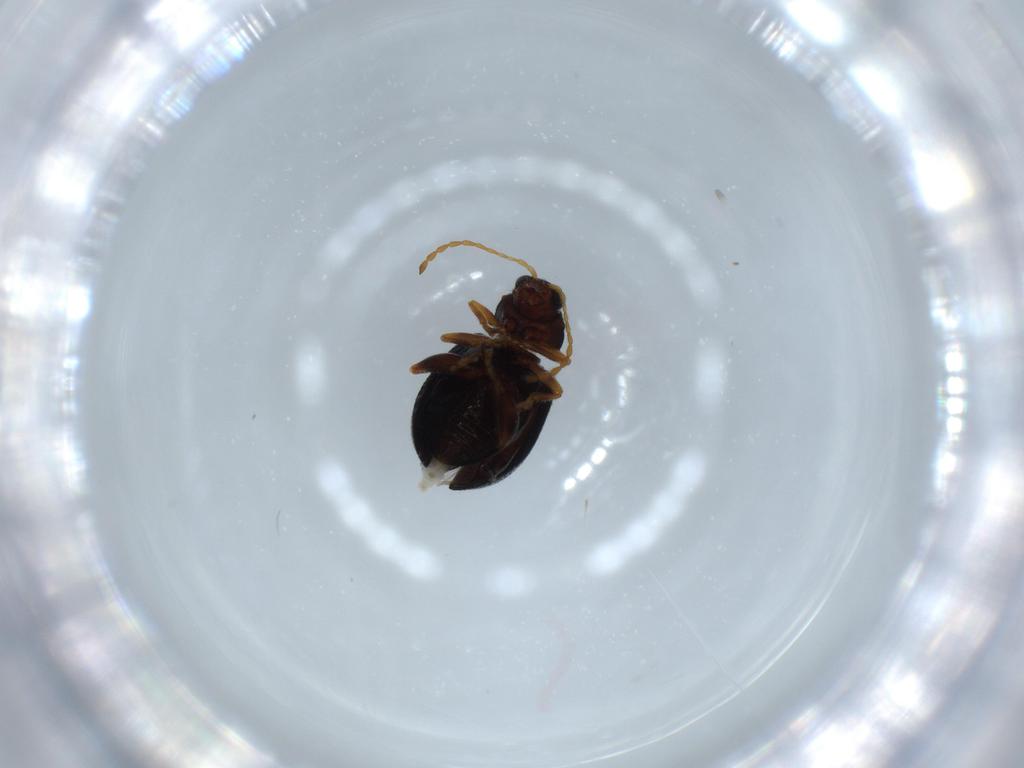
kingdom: Animalia
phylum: Arthropoda
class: Insecta
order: Coleoptera
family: Chrysomelidae
